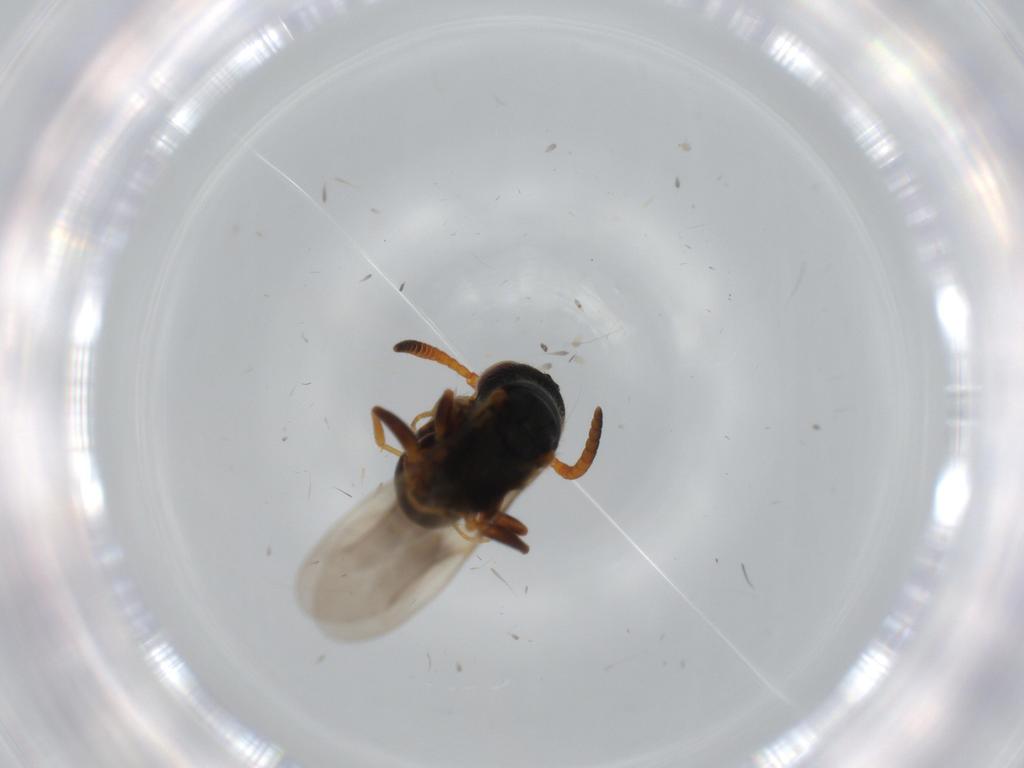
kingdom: Animalia
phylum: Arthropoda
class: Insecta
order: Hymenoptera
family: Bethylidae
